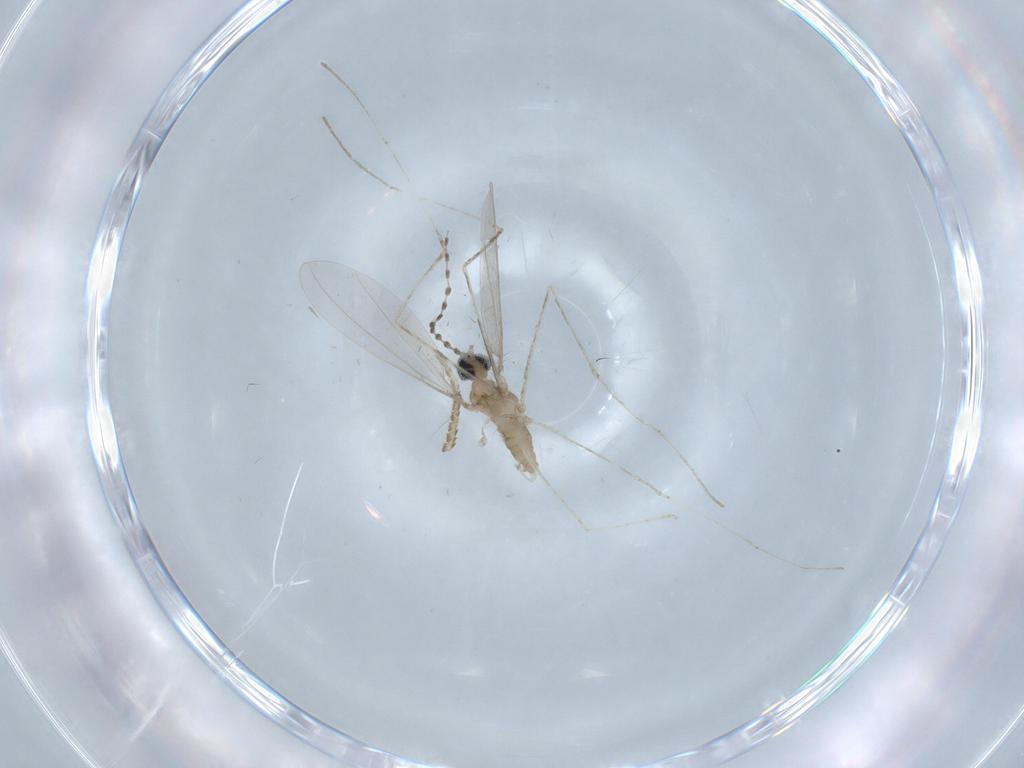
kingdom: Animalia
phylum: Arthropoda
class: Insecta
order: Diptera
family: Cecidomyiidae
